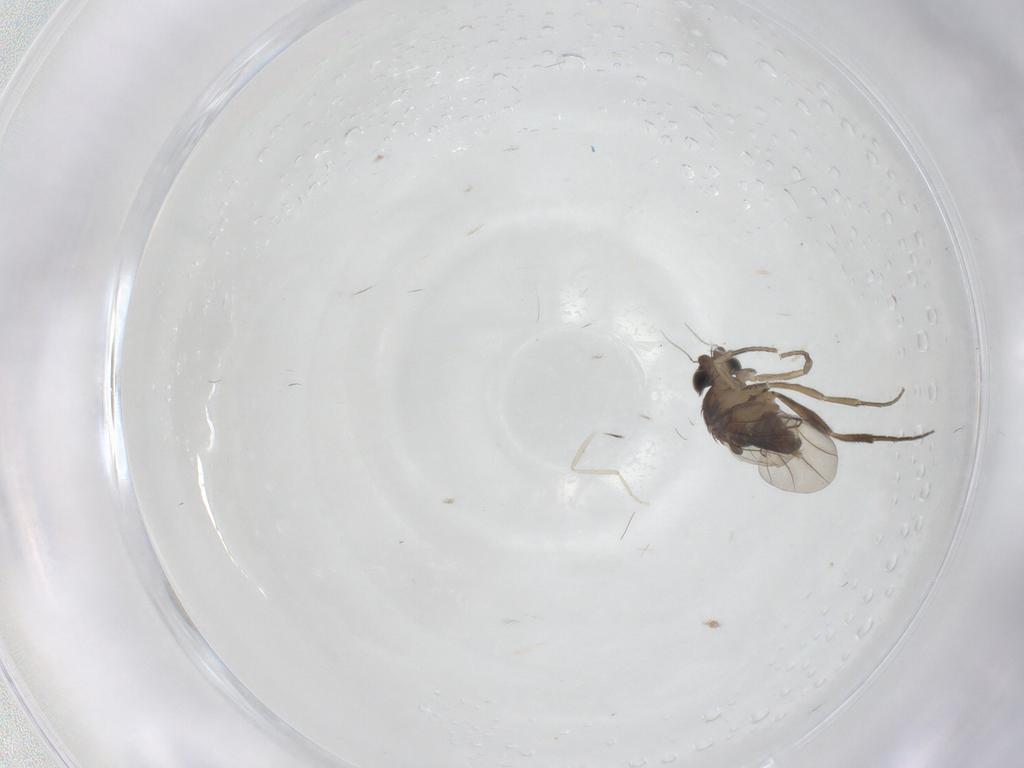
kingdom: Animalia
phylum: Arthropoda
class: Insecta
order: Diptera
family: Phoridae
